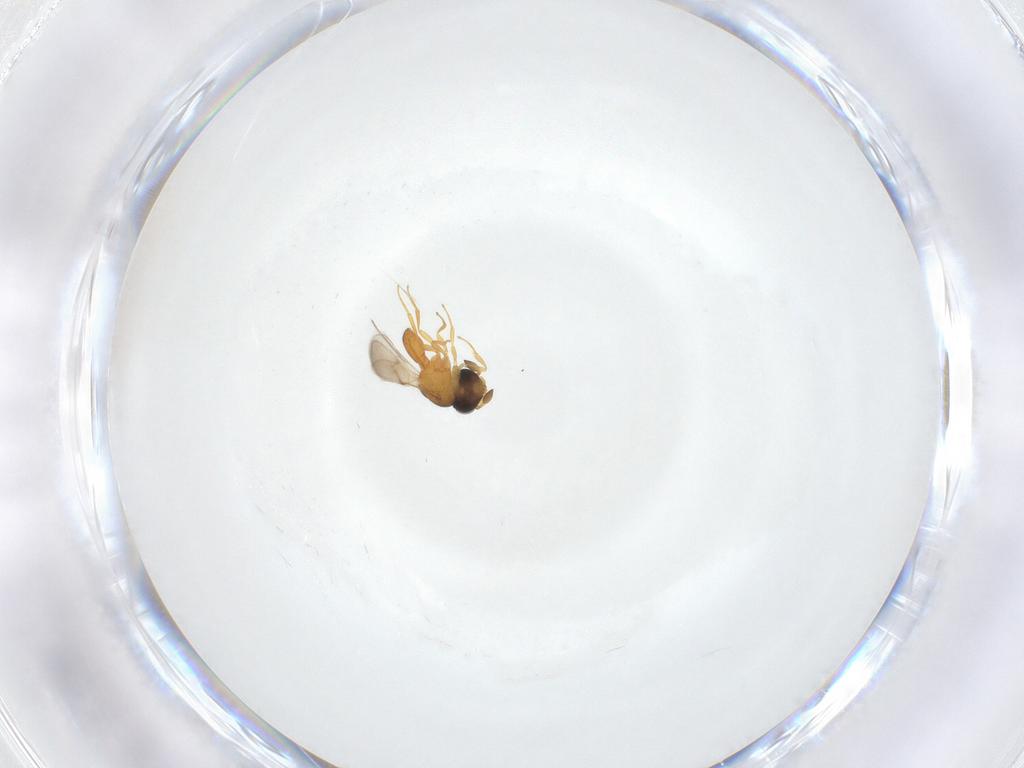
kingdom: Animalia
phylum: Arthropoda
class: Insecta
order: Hymenoptera
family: Scelionidae
